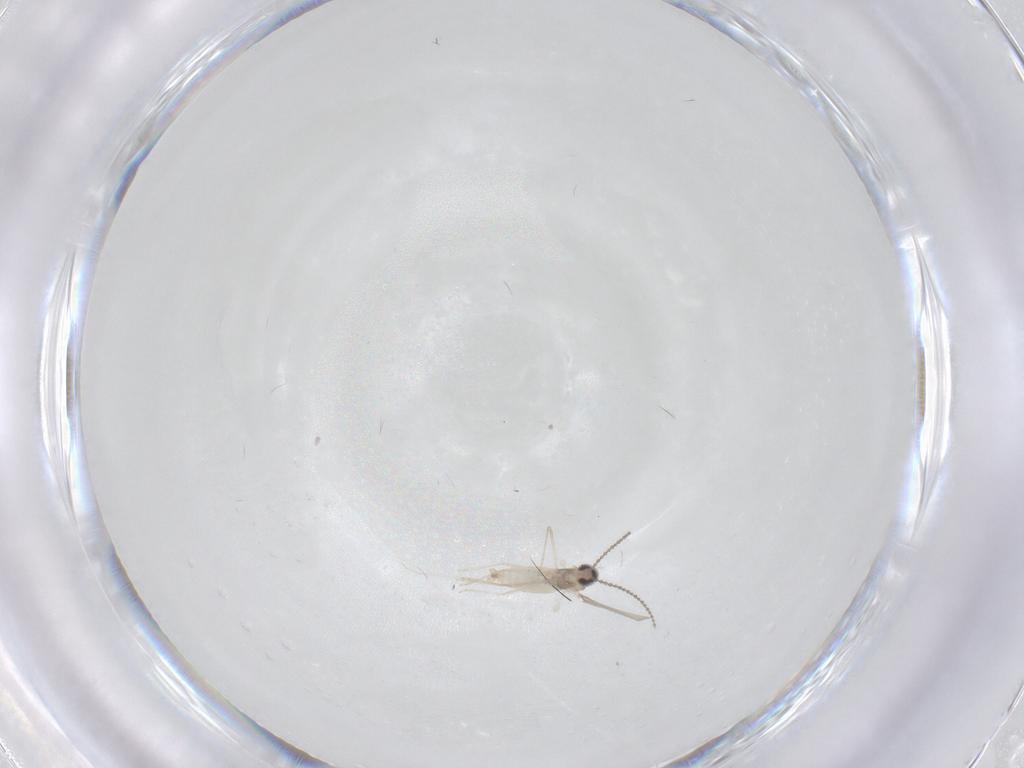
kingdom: Animalia
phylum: Arthropoda
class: Insecta
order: Diptera
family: Cecidomyiidae
